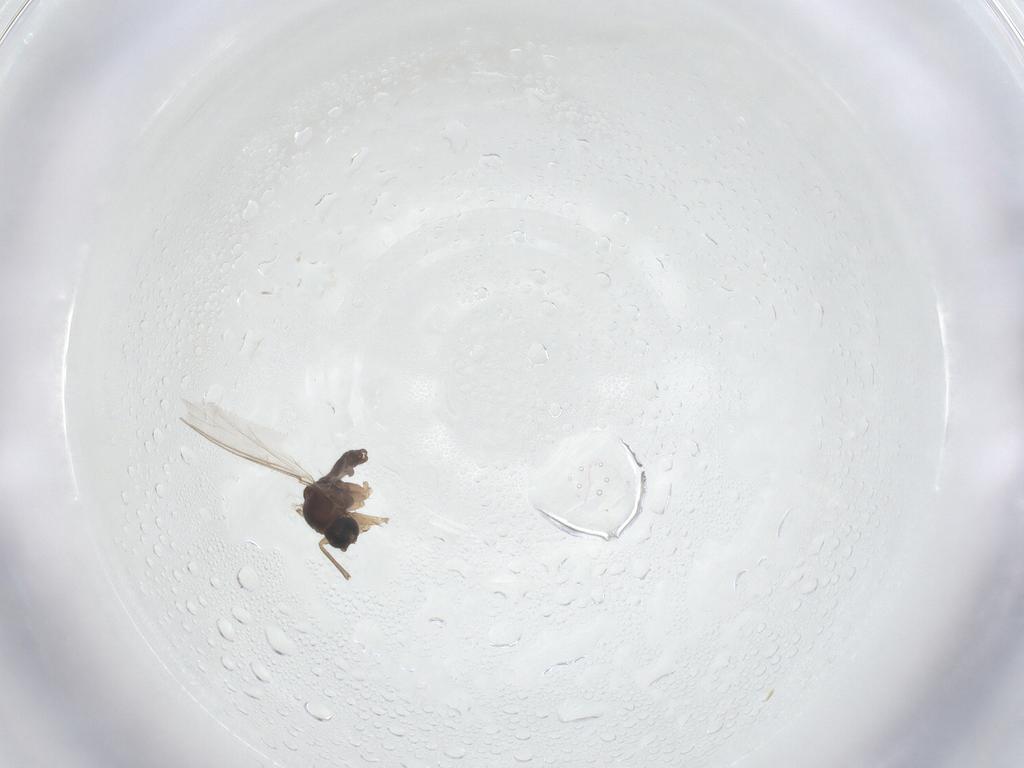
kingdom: Animalia
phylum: Arthropoda
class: Insecta
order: Diptera
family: Sciaridae
